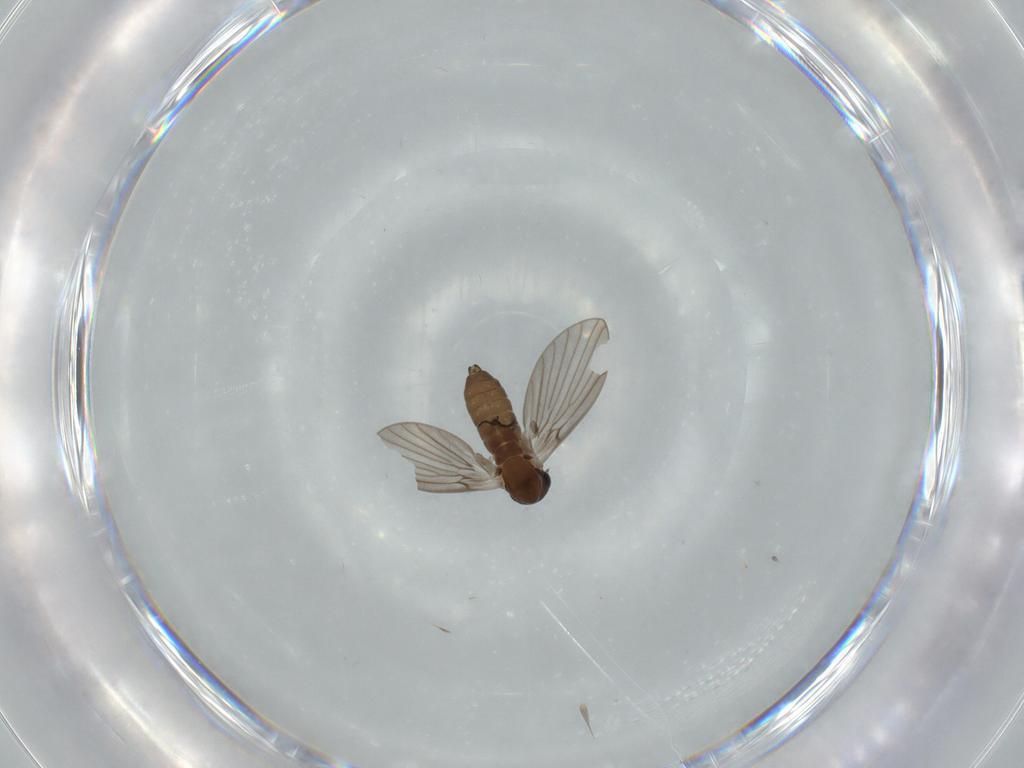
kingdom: Animalia
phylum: Arthropoda
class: Insecta
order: Diptera
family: Psychodidae
